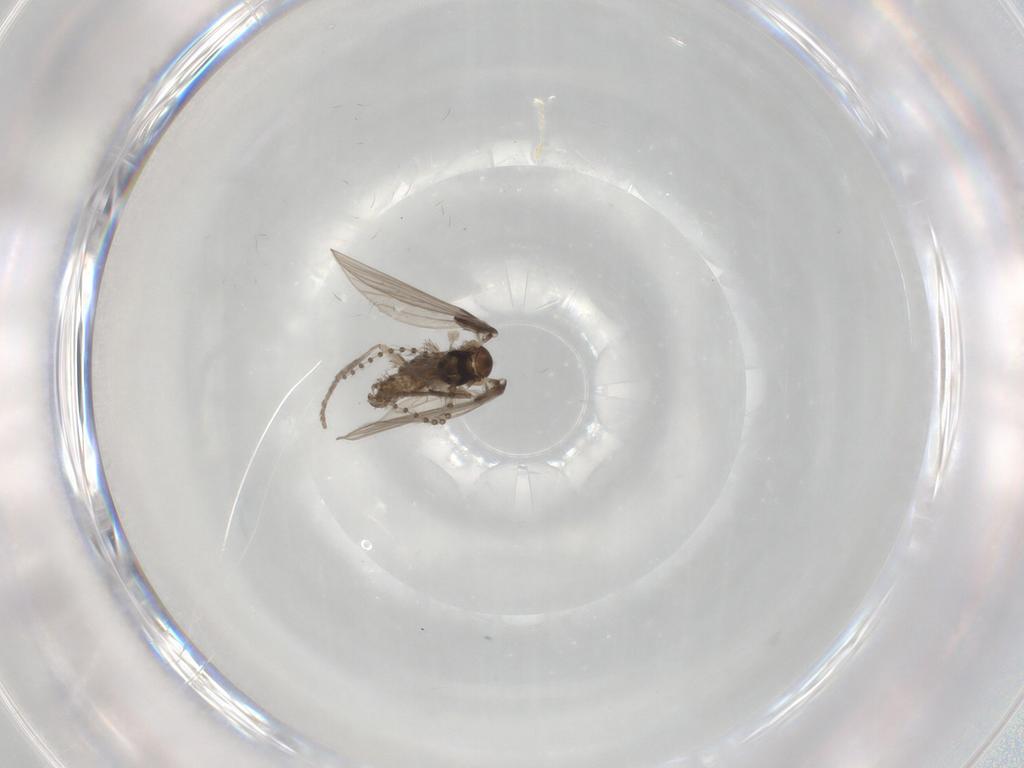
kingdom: Animalia
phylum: Arthropoda
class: Insecta
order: Diptera
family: Psychodidae
